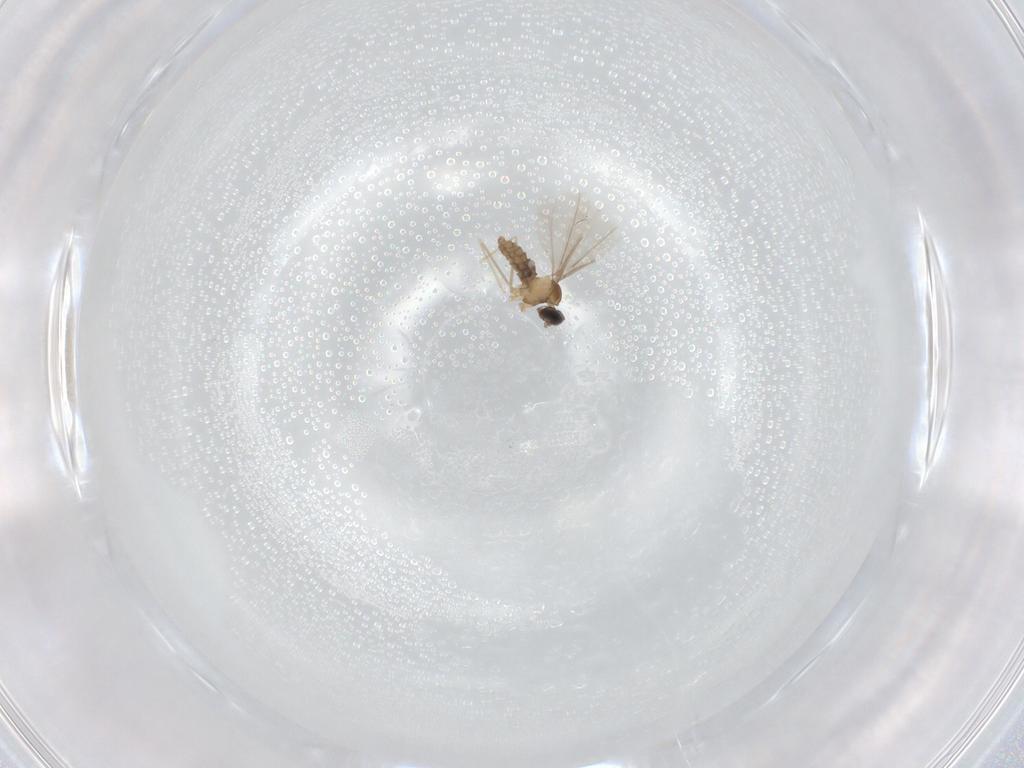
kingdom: Animalia
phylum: Arthropoda
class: Insecta
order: Diptera
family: Cecidomyiidae
